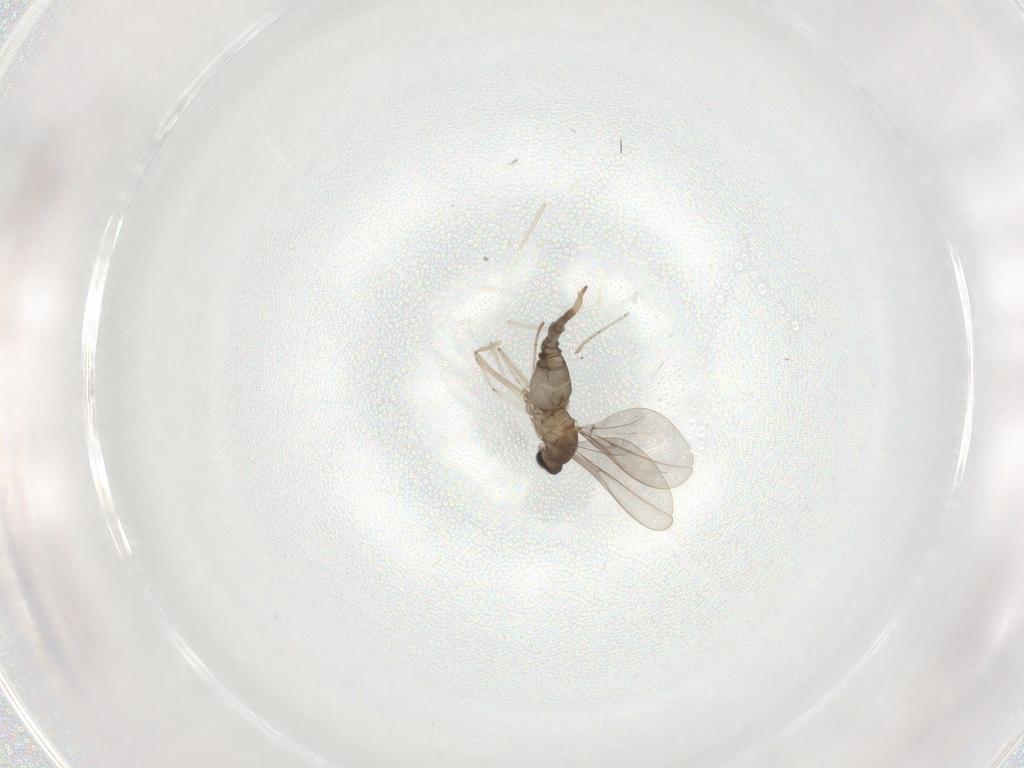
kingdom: Animalia
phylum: Arthropoda
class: Insecta
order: Diptera
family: Cecidomyiidae
